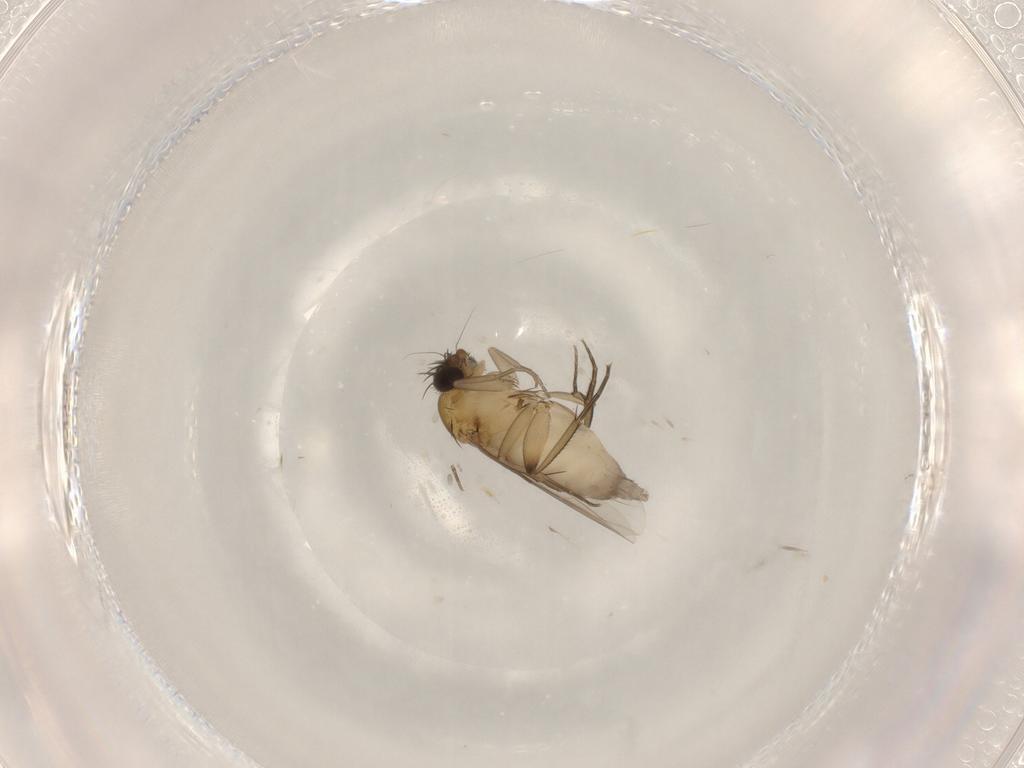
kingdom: Animalia
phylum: Arthropoda
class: Insecta
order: Diptera
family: Phoridae
